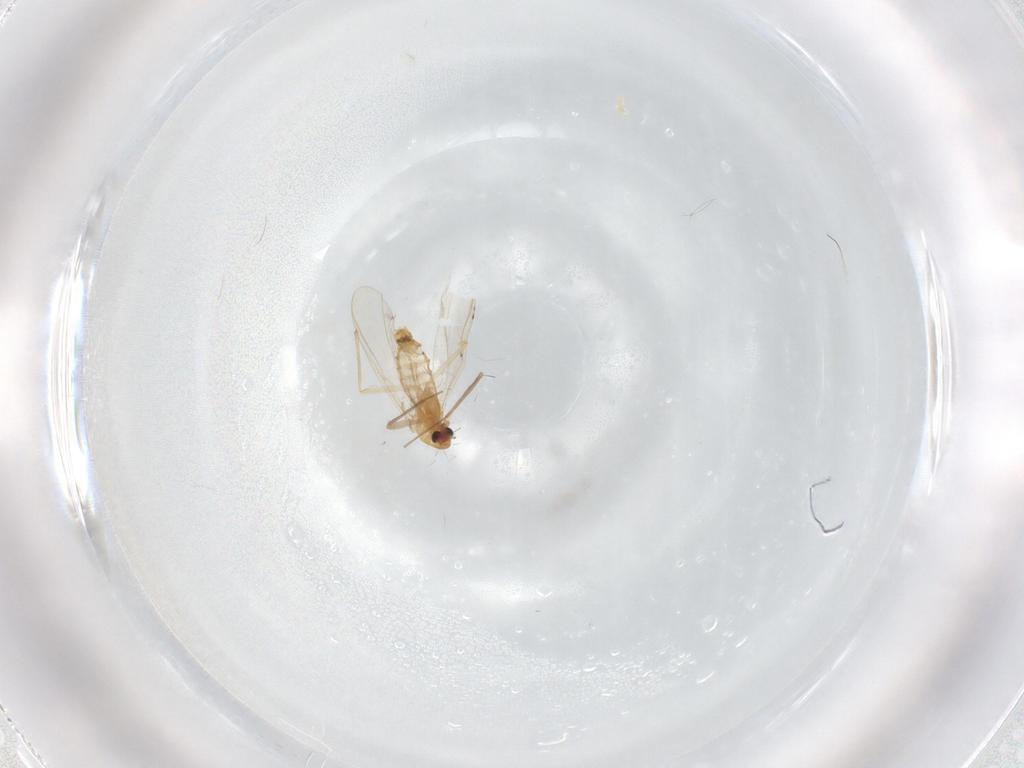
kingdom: Animalia
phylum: Arthropoda
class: Insecta
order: Diptera
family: Chironomidae
